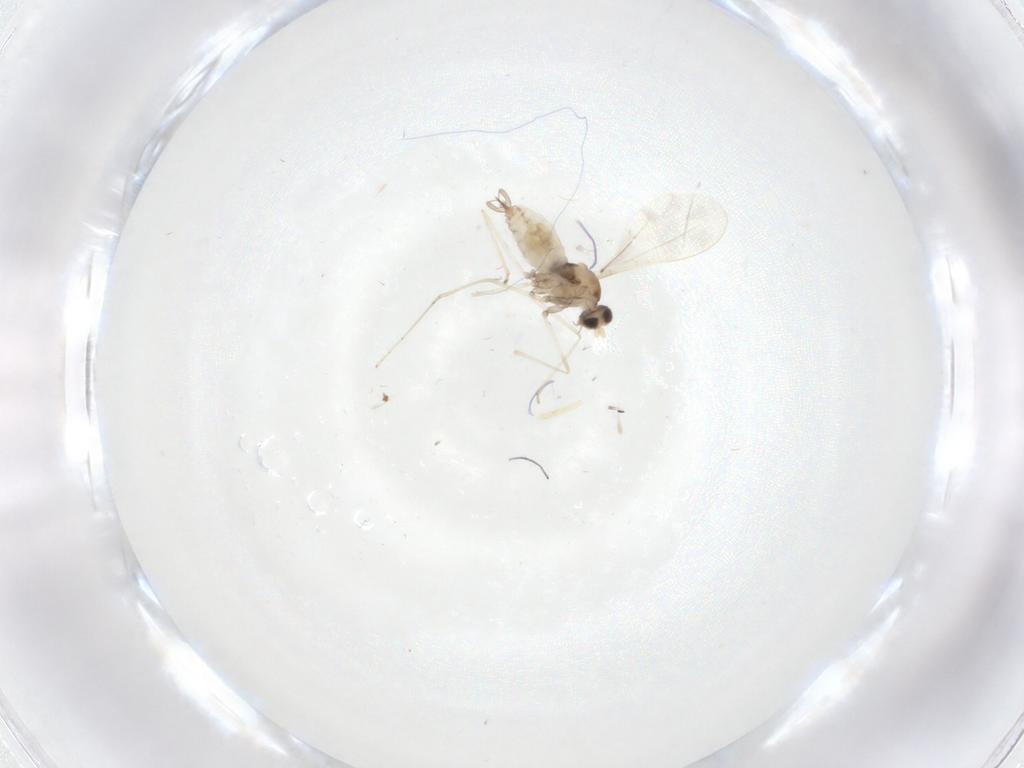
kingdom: Animalia
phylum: Arthropoda
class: Insecta
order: Diptera
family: Cecidomyiidae
